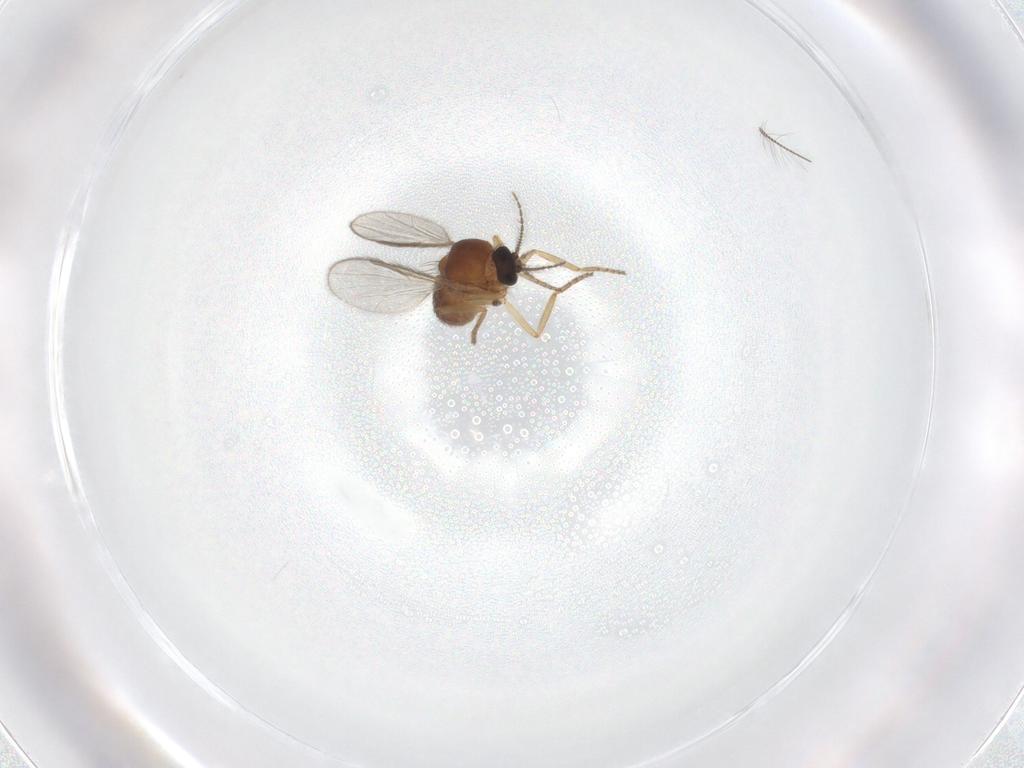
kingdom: Animalia
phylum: Arthropoda
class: Insecta
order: Diptera
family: Ceratopogonidae
